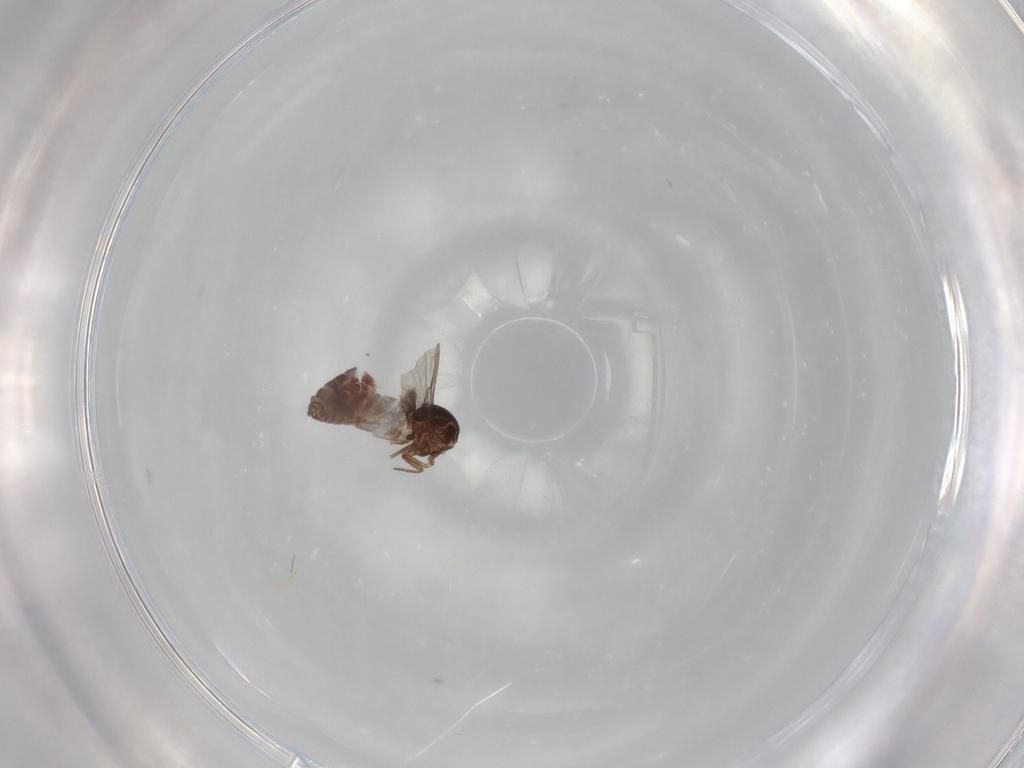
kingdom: Animalia
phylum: Arthropoda
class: Insecta
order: Diptera
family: Ceratopogonidae
